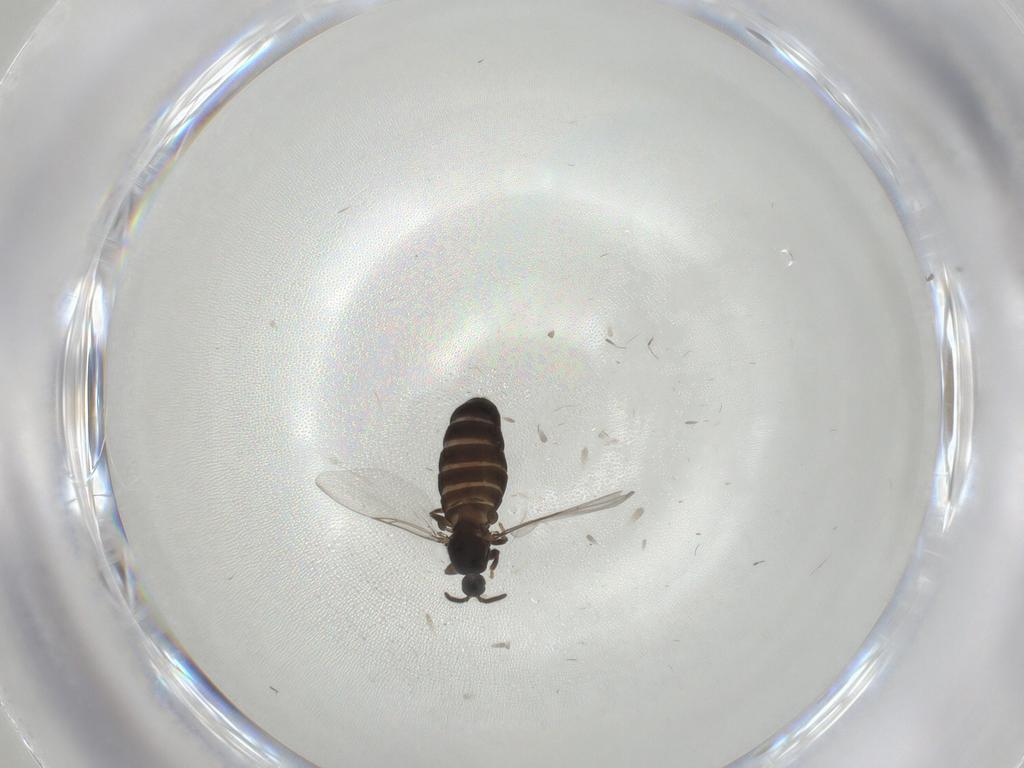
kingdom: Animalia
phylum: Arthropoda
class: Insecta
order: Diptera
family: Scatopsidae
